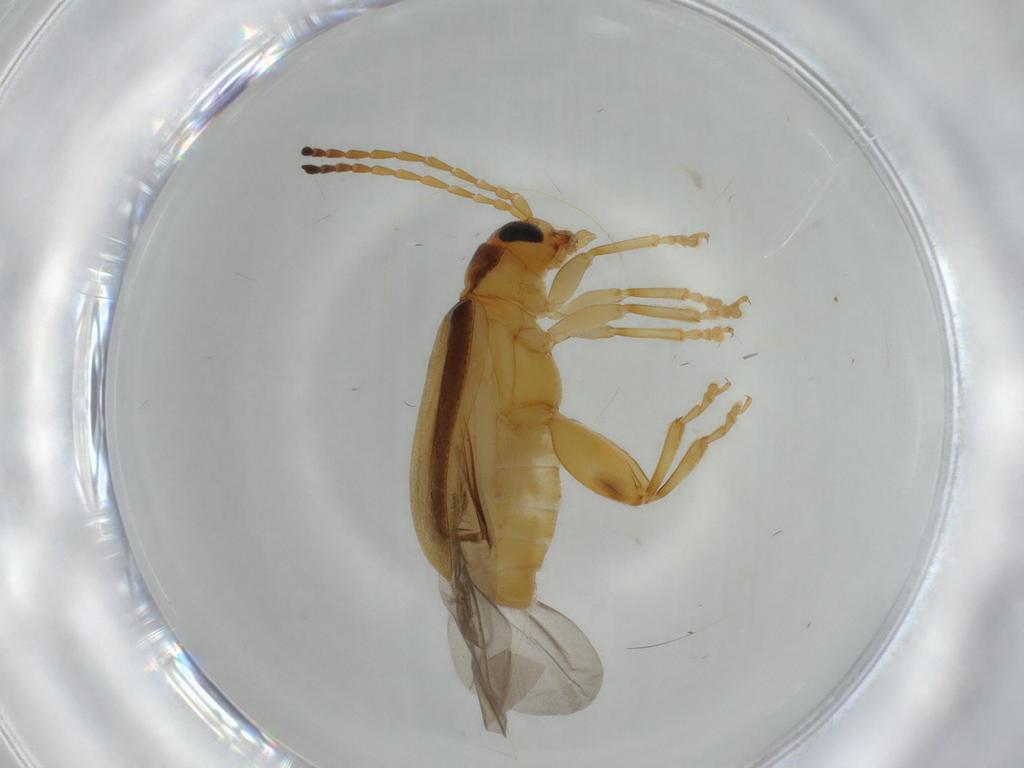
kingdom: Animalia
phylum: Arthropoda
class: Insecta
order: Coleoptera
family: Chrysomelidae
